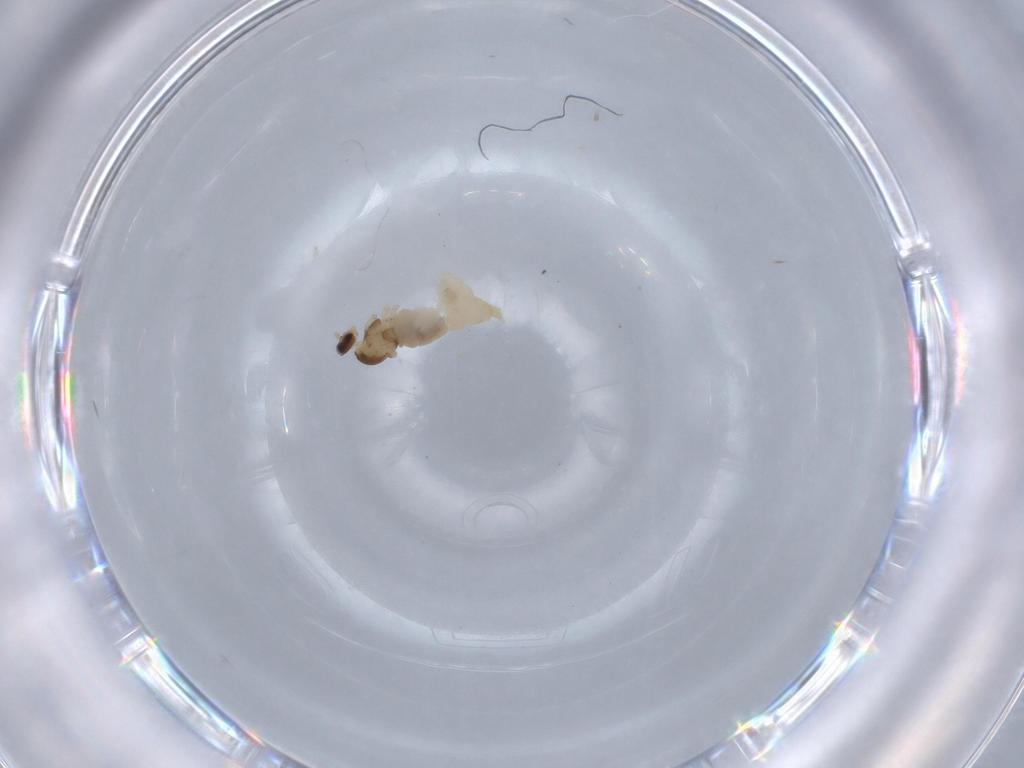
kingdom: Animalia
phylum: Arthropoda
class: Insecta
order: Diptera
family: Cecidomyiidae
